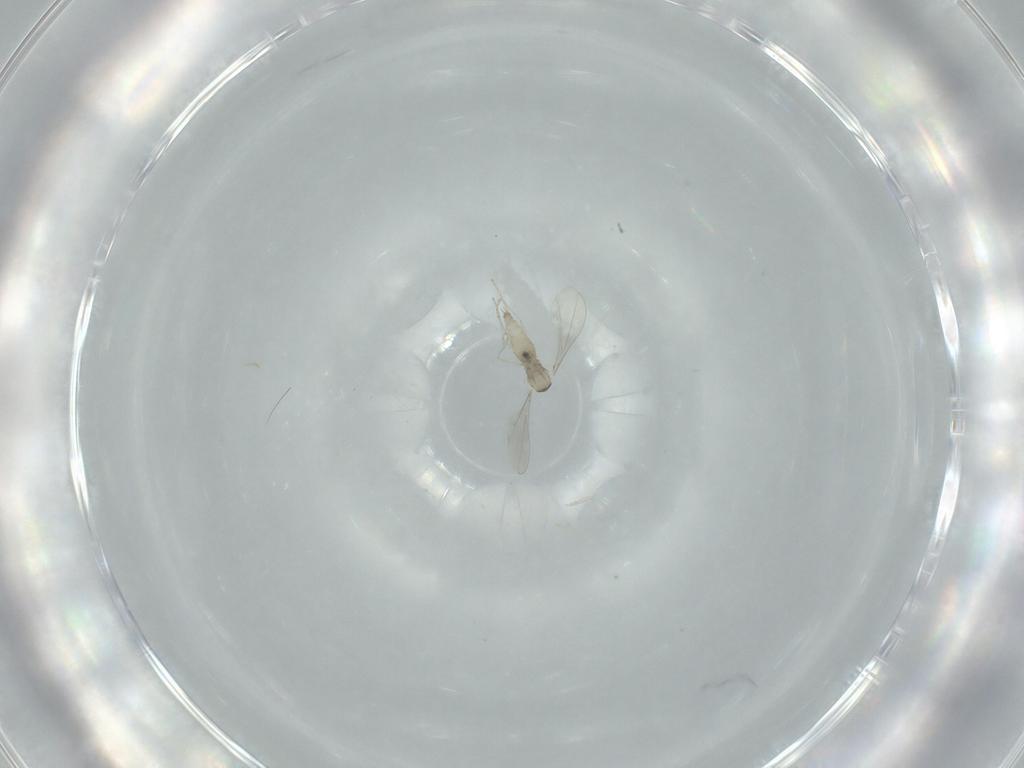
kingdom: Animalia
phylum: Arthropoda
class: Insecta
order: Diptera
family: Cecidomyiidae
